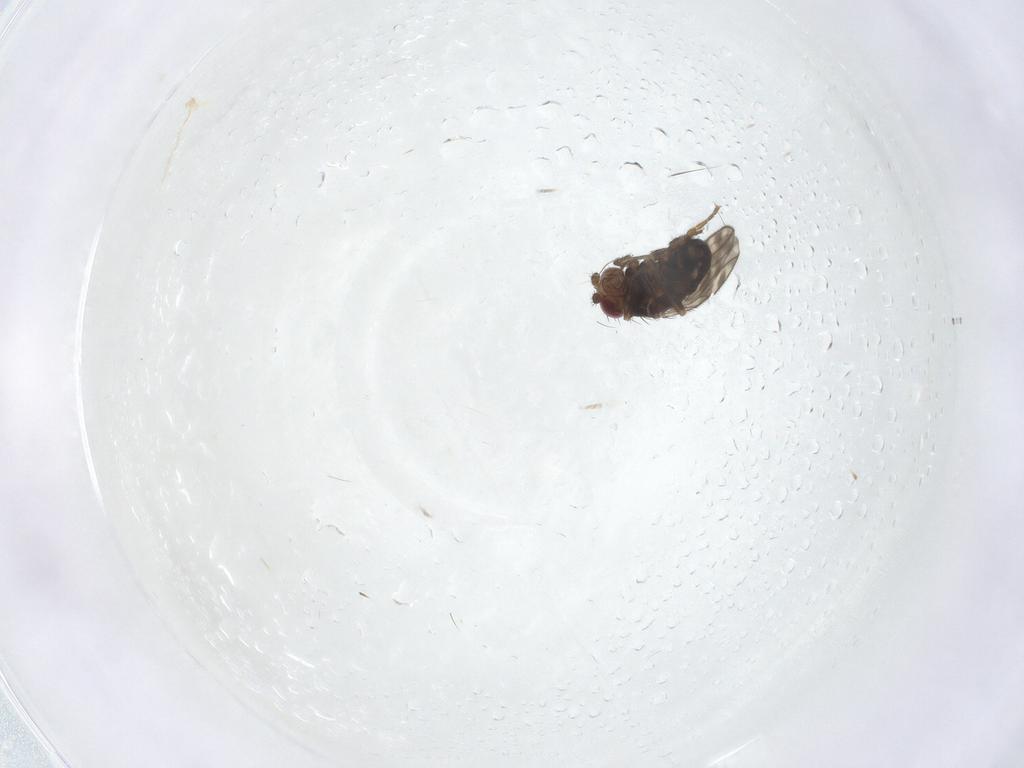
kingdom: Animalia
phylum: Arthropoda
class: Insecta
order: Diptera
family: Sphaeroceridae
